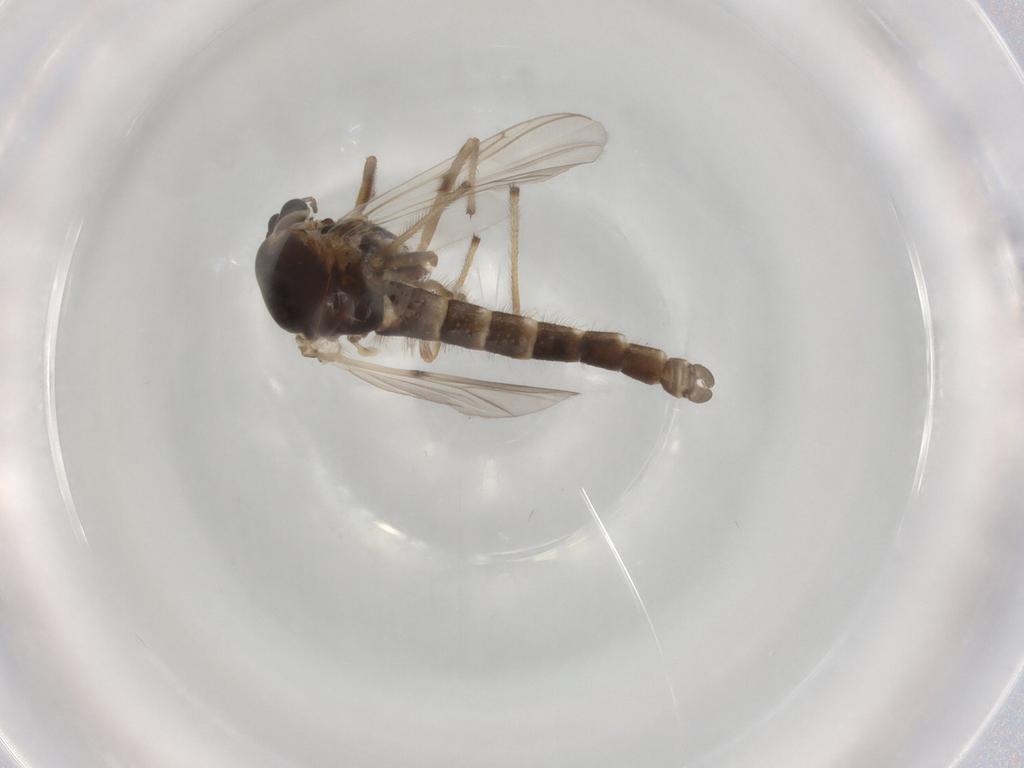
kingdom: Animalia
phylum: Arthropoda
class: Insecta
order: Diptera
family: Chironomidae
